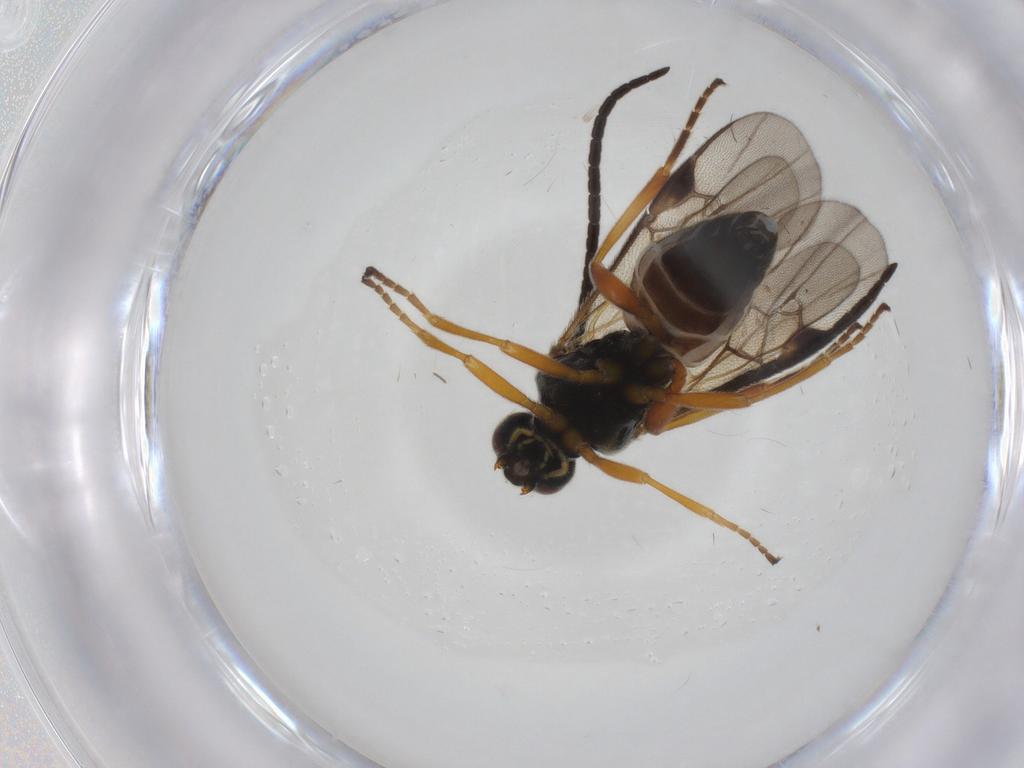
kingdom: Animalia
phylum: Arthropoda
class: Insecta
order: Hymenoptera
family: Braconidae
